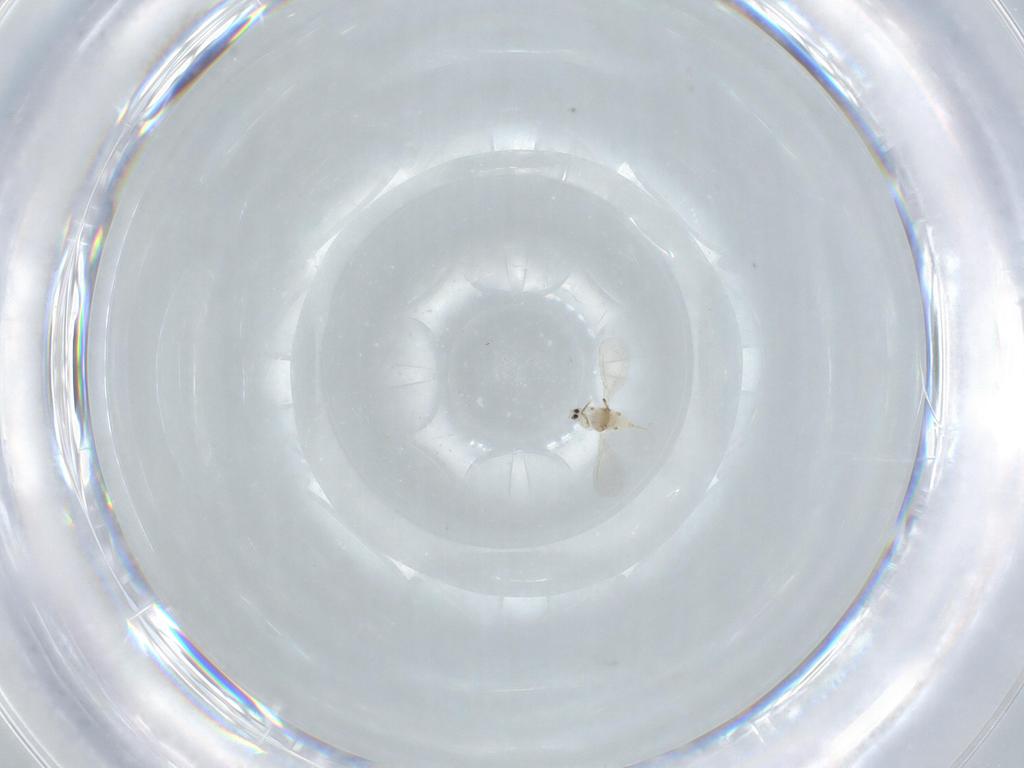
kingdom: Animalia
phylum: Arthropoda
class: Insecta
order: Hemiptera
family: Diaspididae
